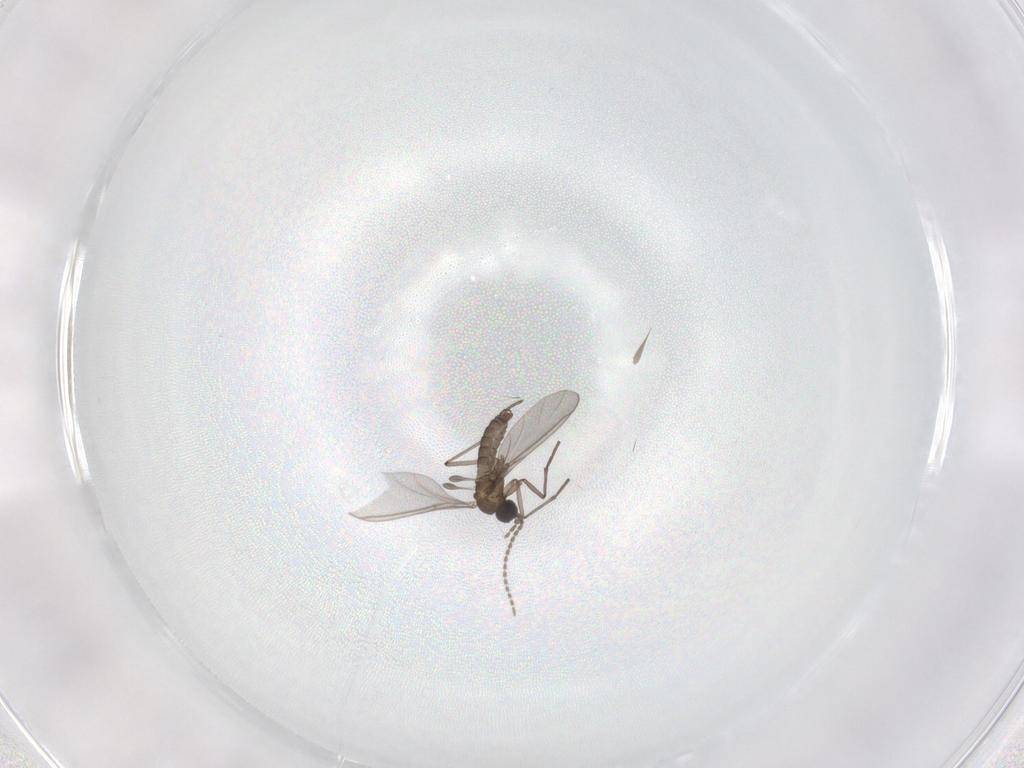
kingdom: Animalia
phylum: Arthropoda
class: Insecta
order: Diptera
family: Sciaridae
